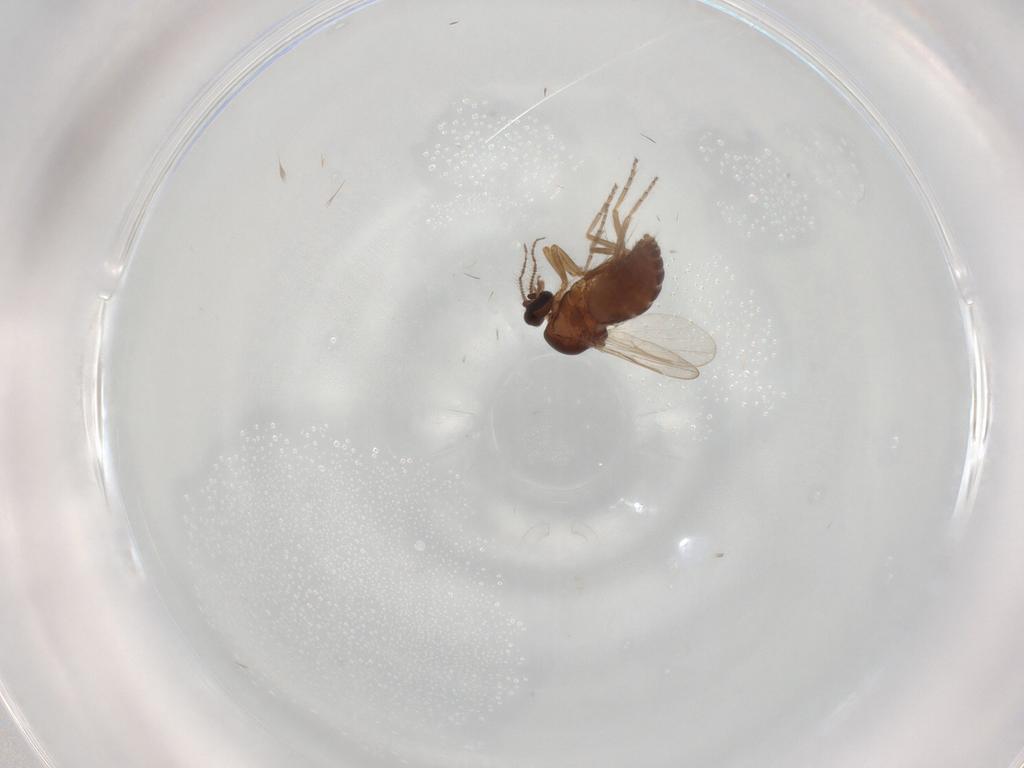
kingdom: Animalia
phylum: Arthropoda
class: Insecta
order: Diptera
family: Ceratopogonidae
